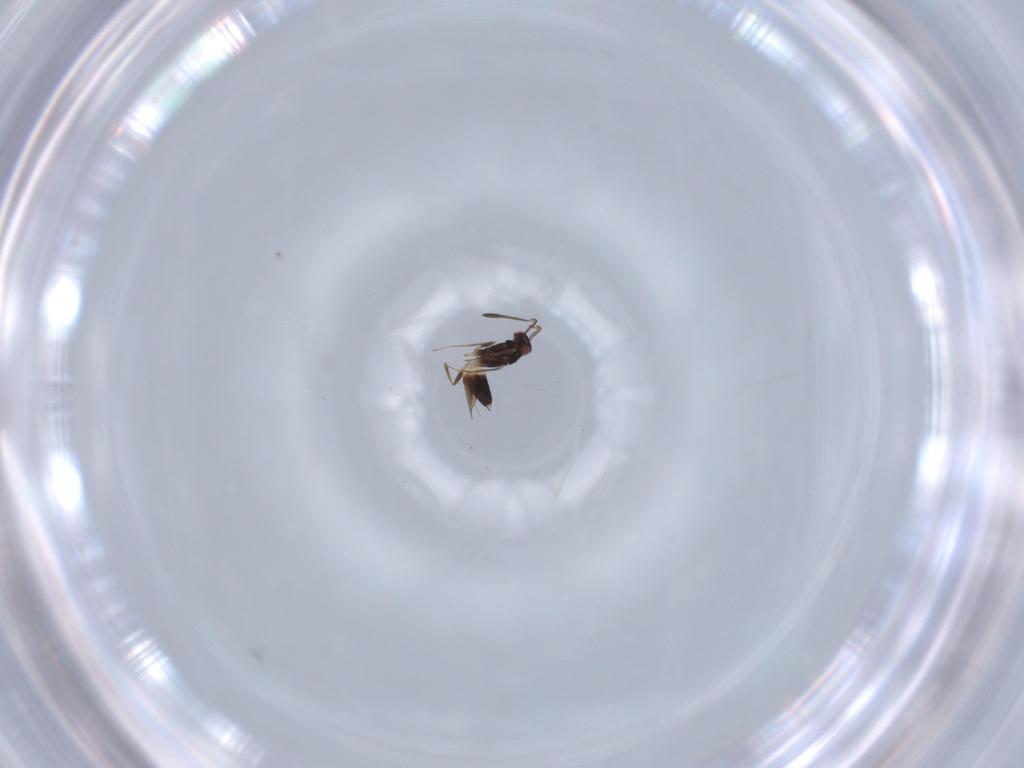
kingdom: Animalia
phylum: Arthropoda
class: Insecta
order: Hymenoptera
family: Mymaridae
